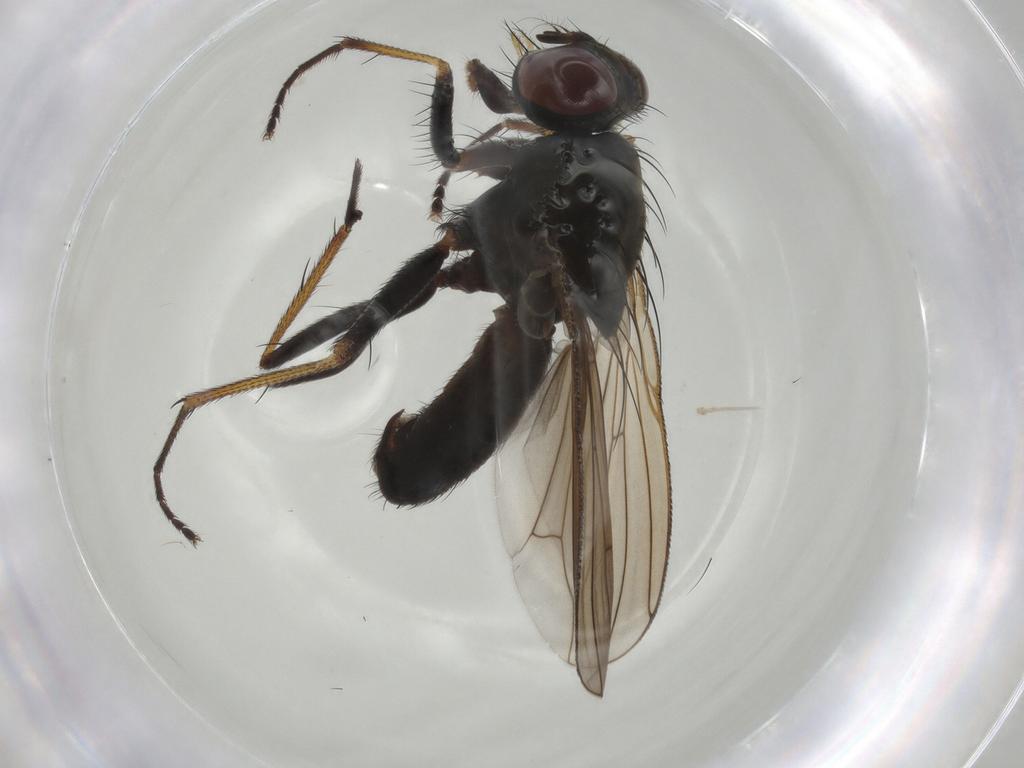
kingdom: Animalia
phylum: Arthropoda
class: Insecta
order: Diptera
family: Muscidae
